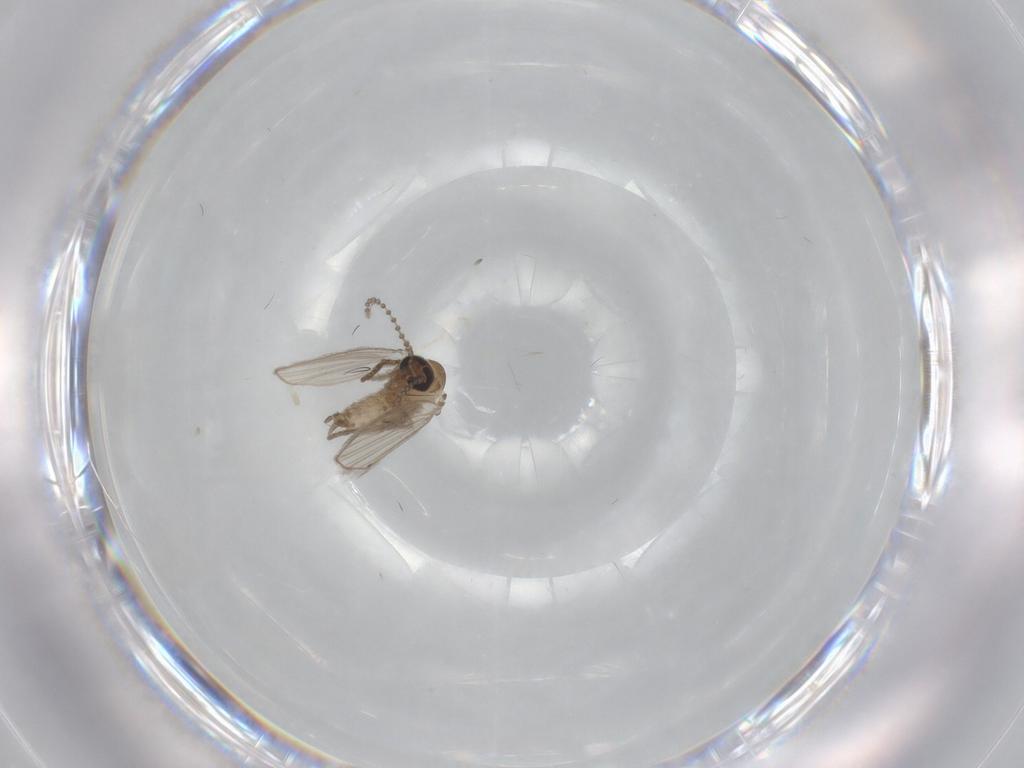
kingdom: Animalia
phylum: Arthropoda
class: Insecta
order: Diptera
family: Psychodidae
